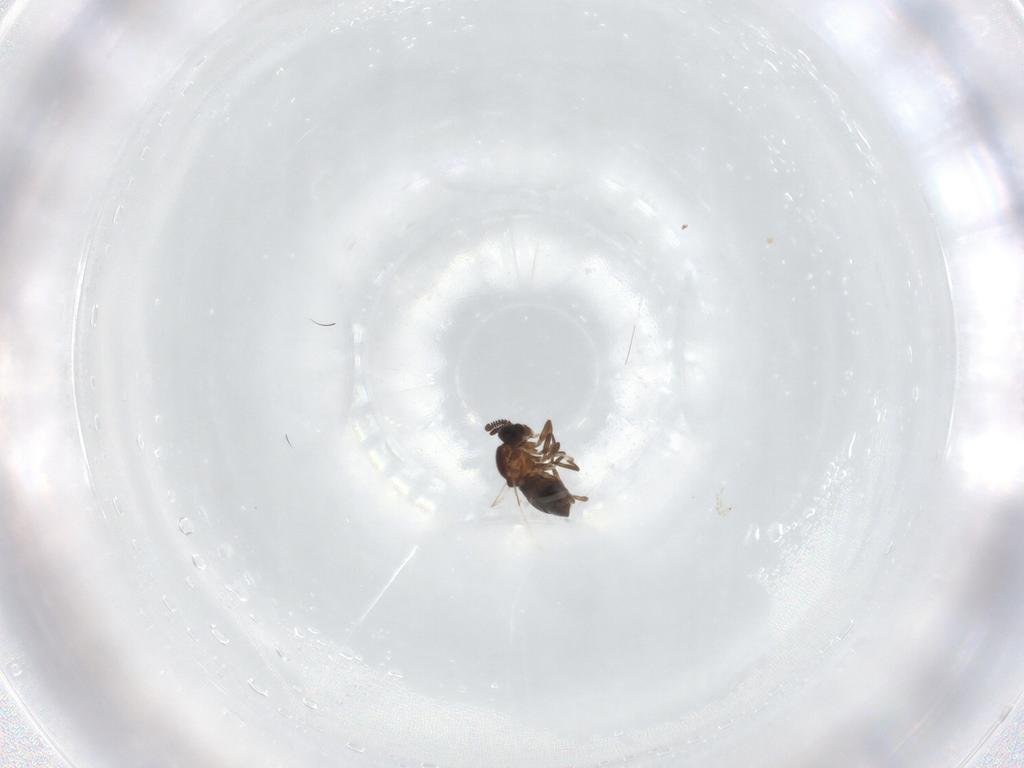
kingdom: Animalia
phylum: Arthropoda
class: Insecta
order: Diptera
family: Scatopsidae
